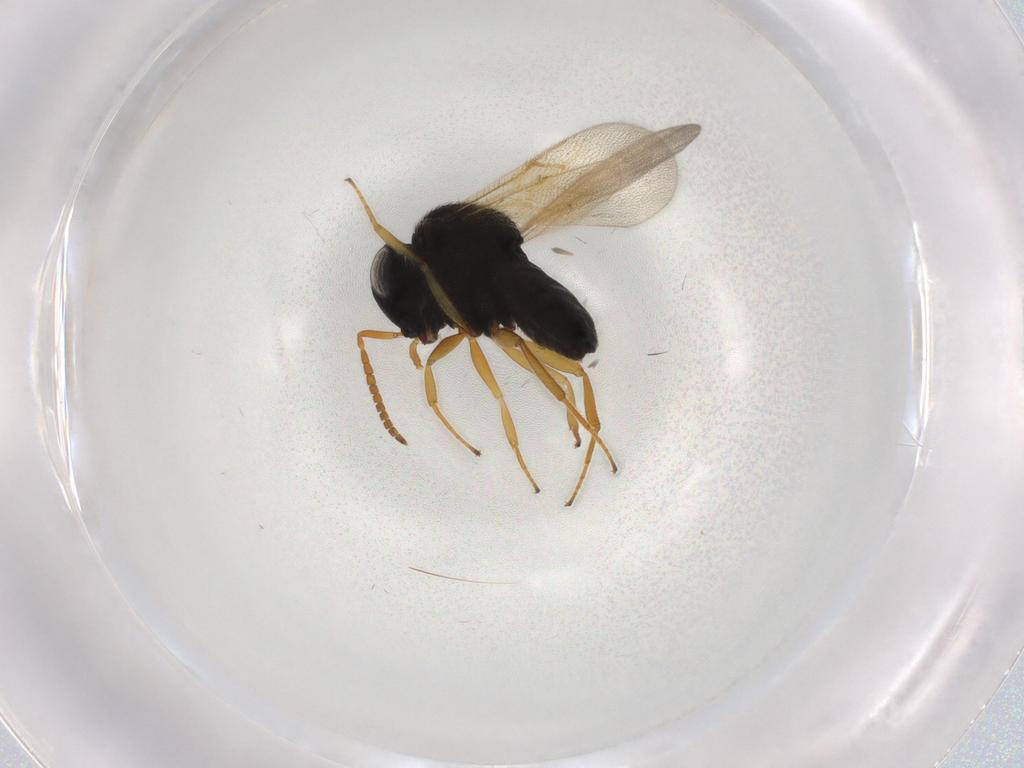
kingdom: Animalia
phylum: Arthropoda
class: Insecta
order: Hymenoptera
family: Scelionidae
